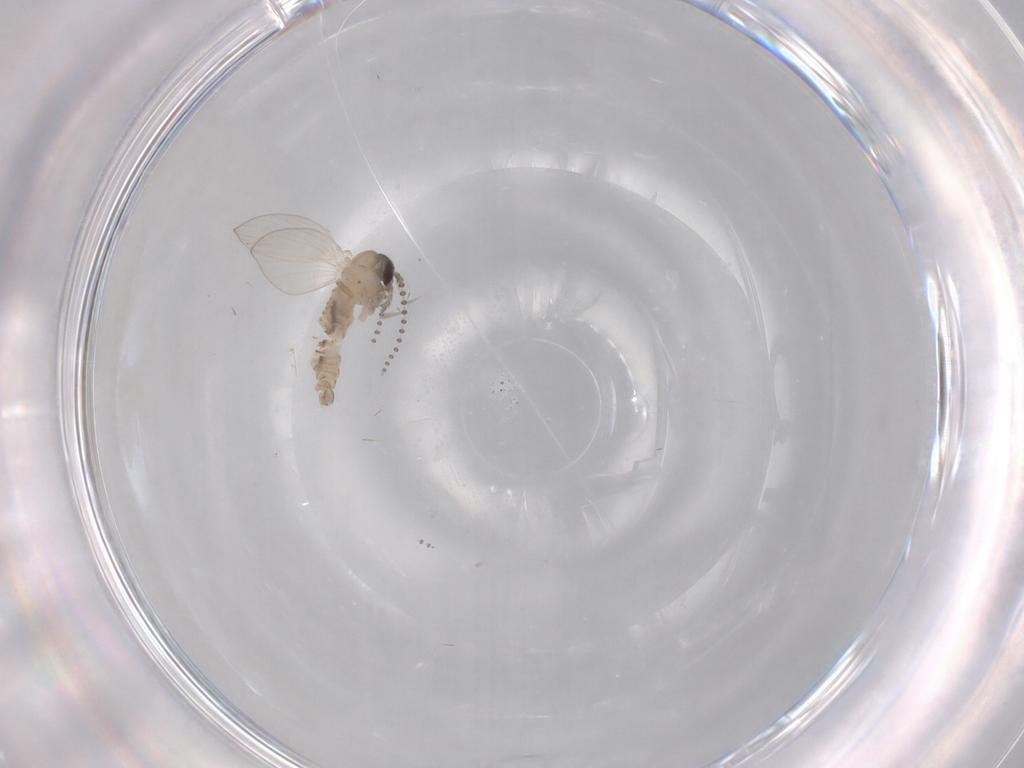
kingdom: Animalia
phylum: Arthropoda
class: Insecta
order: Diptera
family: Psychodidae
